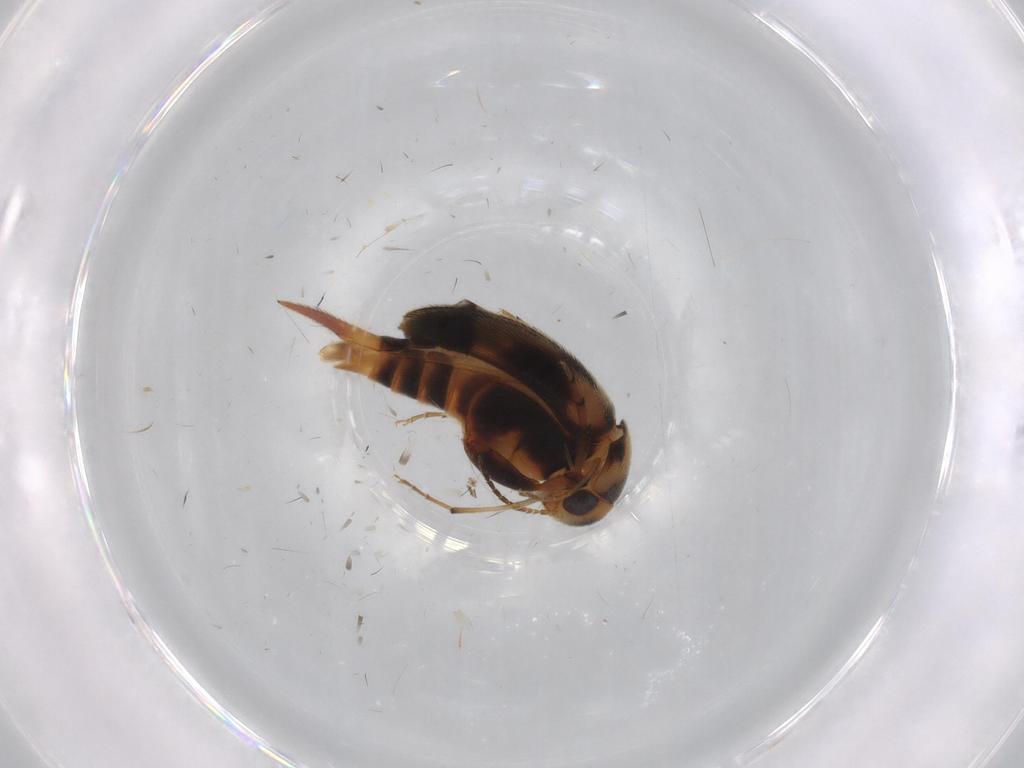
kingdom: Animalia
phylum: Arthropoda
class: Insecta
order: Coleoptera
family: Mordellidae
